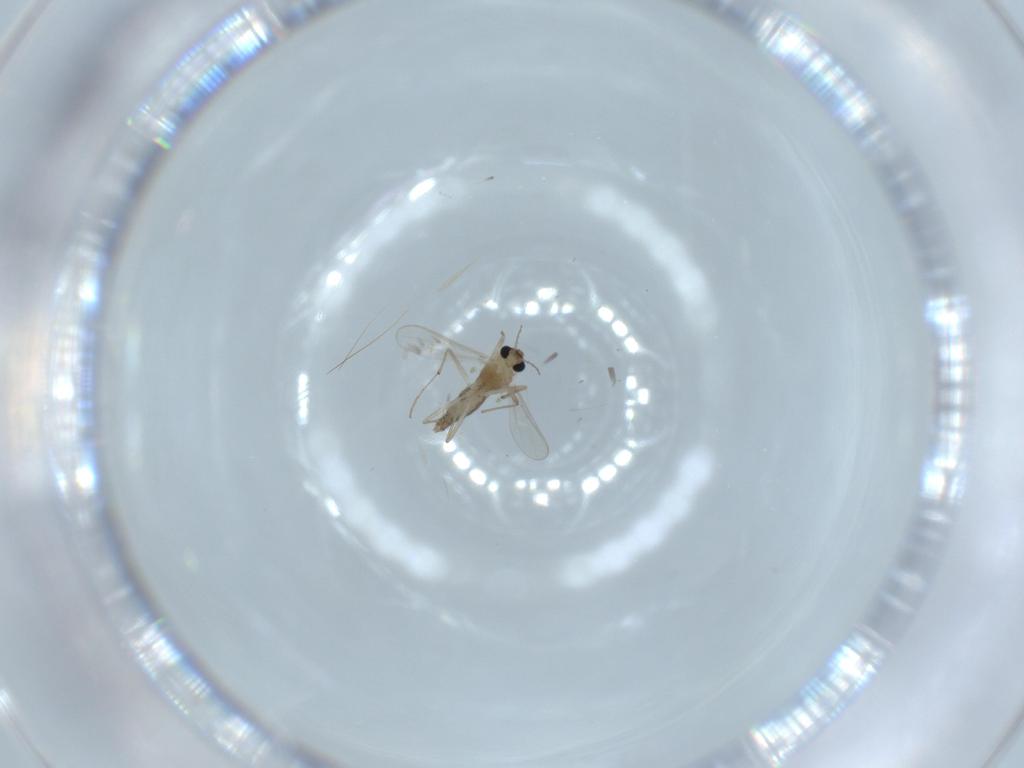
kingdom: Animalia
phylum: Arthropoda
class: Insecta
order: Diptera
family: Chironomidae
